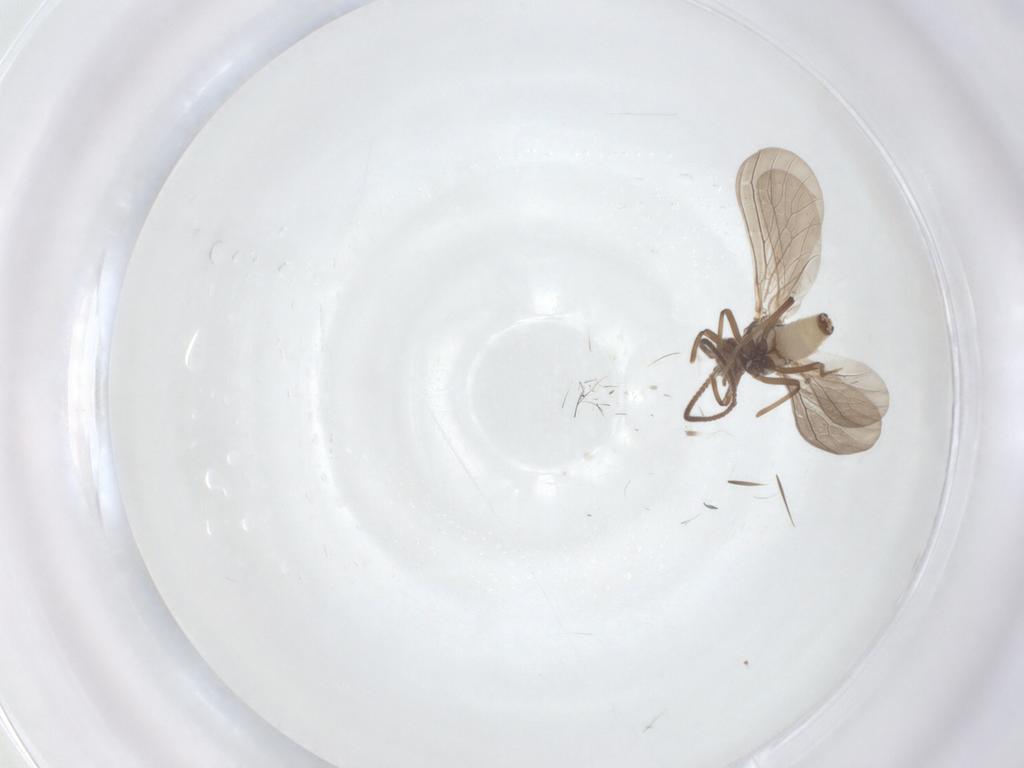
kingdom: Animalia
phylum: Arthropoda
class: Insecta
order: Neuroptera
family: Coniopterygidae
